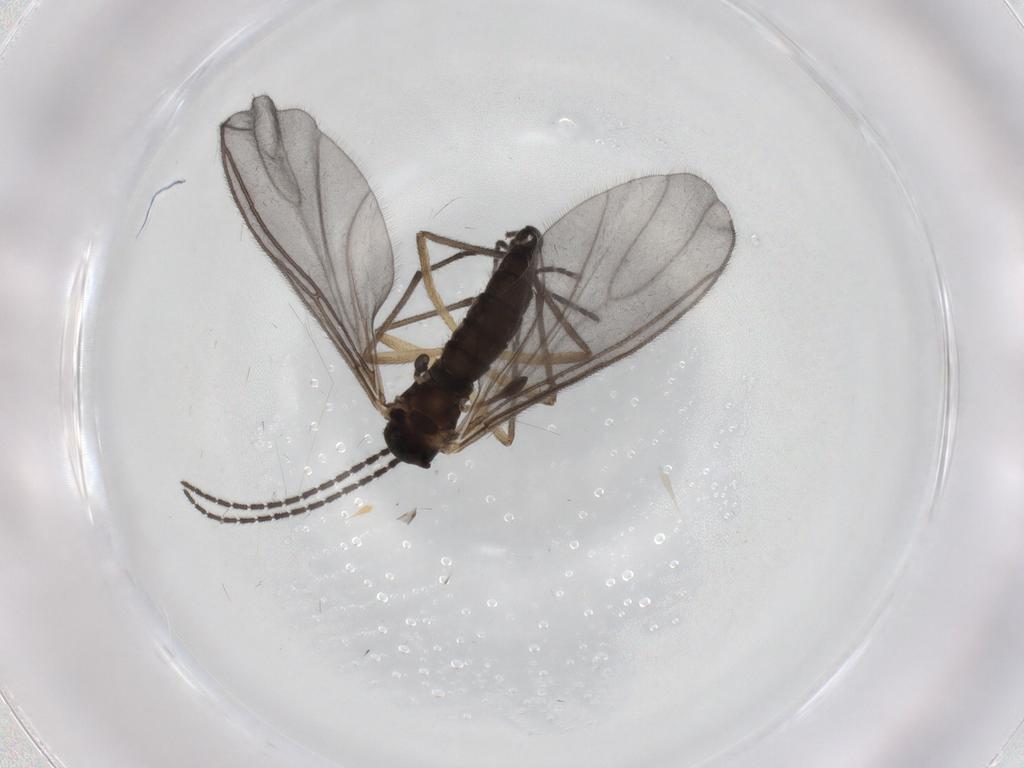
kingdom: Animalia
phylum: Arthropoda
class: Insecta
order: Diptera
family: Sciaridae
